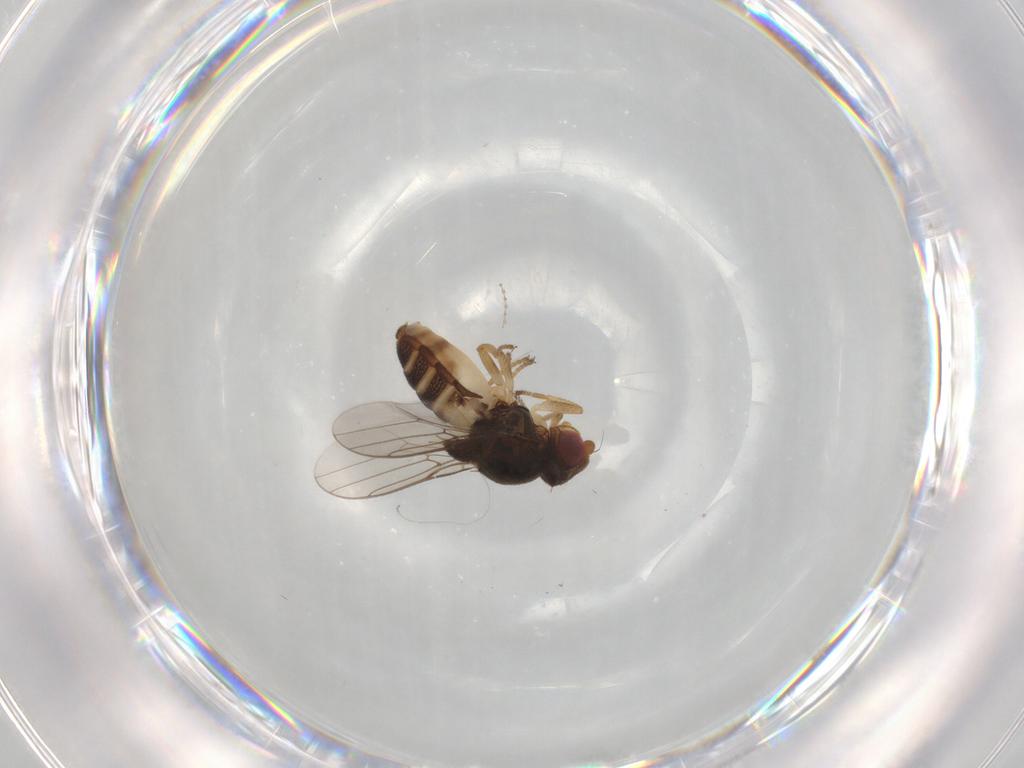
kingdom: Animalia
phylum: Arthropoda
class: Insecta
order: Diptera
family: Chloropidae
